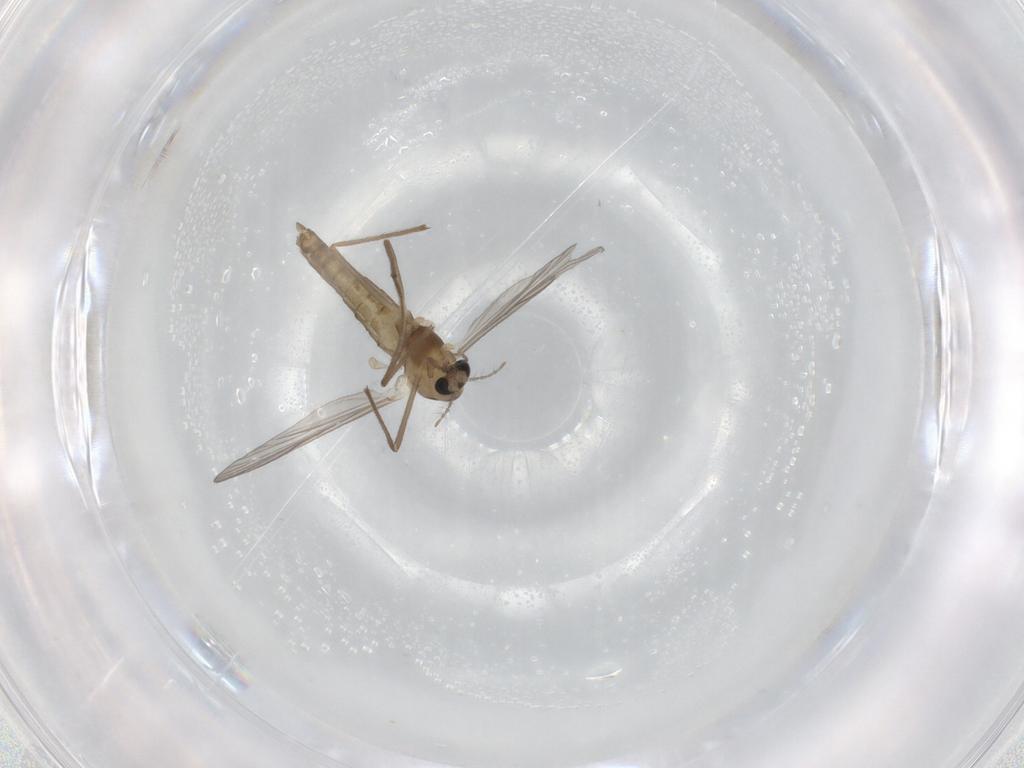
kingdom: Animalia
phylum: Arthropoda
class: Insecta
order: Diptera
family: Chironomidae
